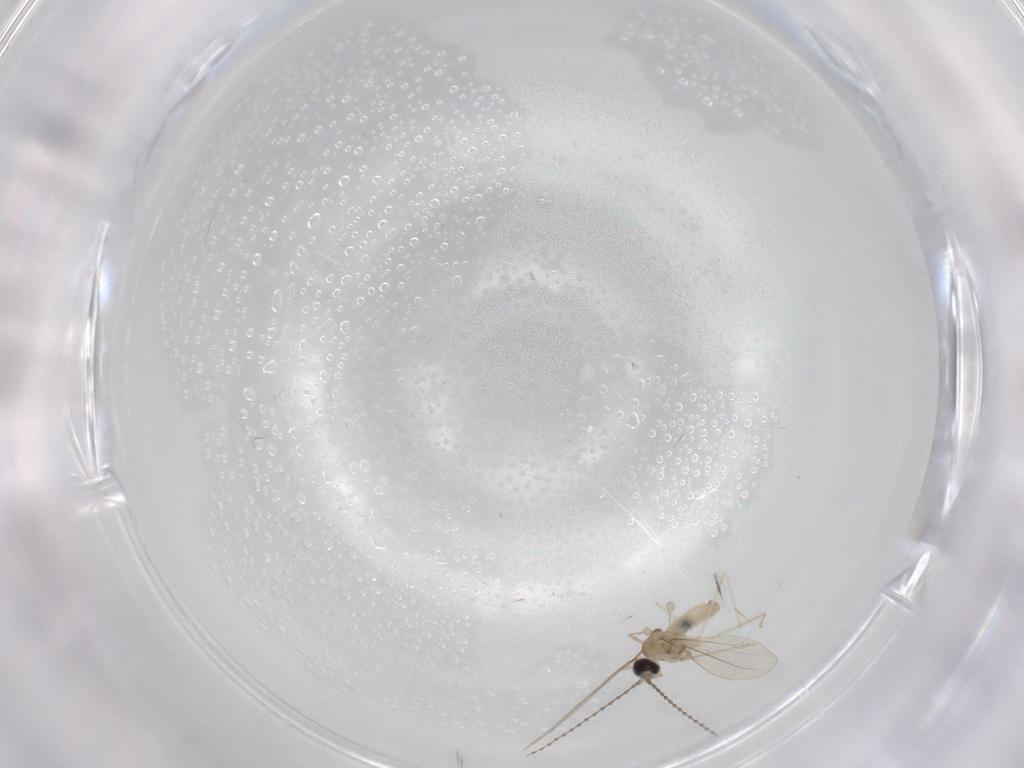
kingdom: Animalia
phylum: Arthropoda
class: Insecta
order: Diptera
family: Cecidomyiidae
